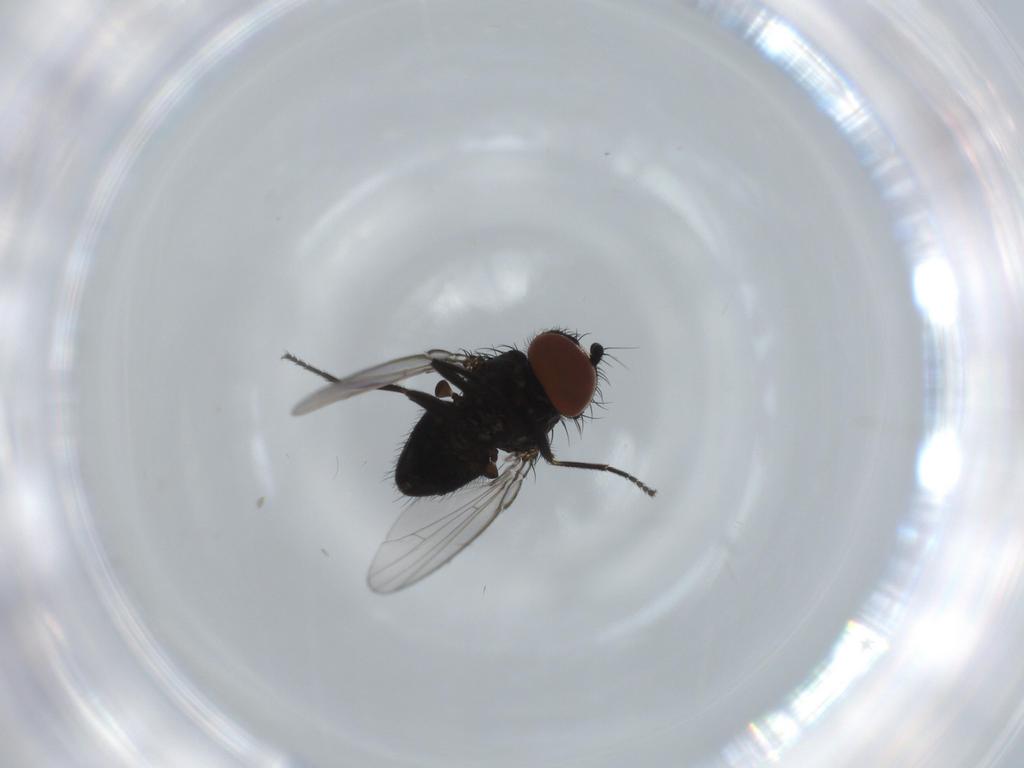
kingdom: Animalia
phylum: Arthropoda
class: Insecta
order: Diptera
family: Milichiidae
